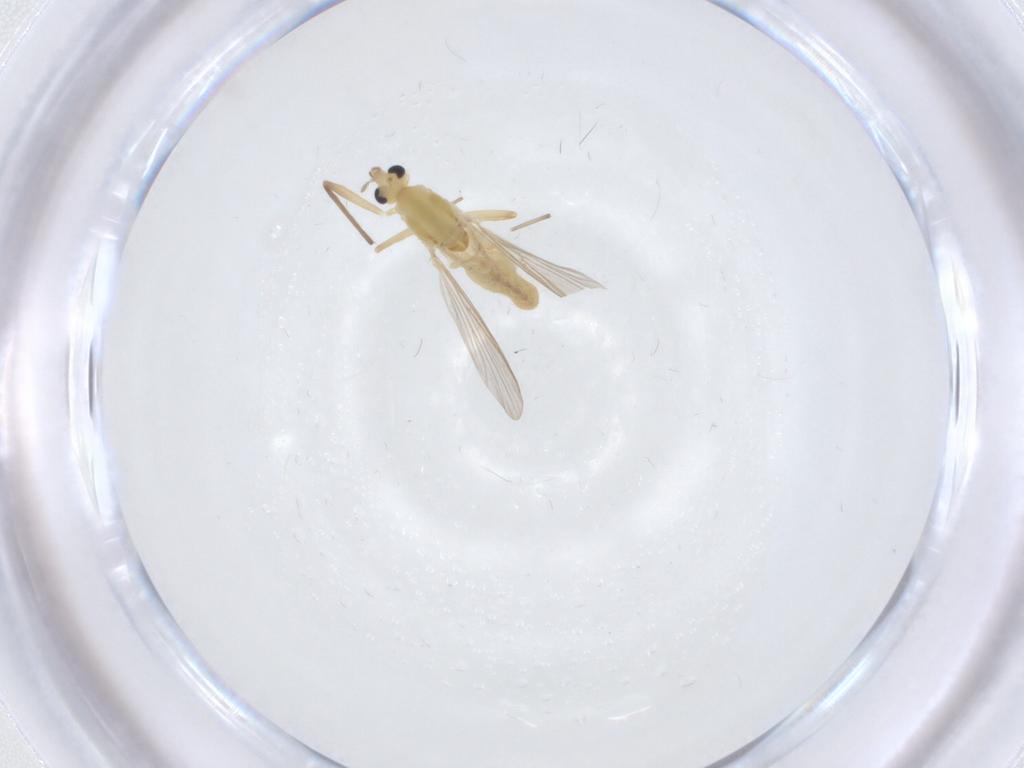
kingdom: Animalia
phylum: Arthropoda
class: Insecta
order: Diptera
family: Chironomidae
